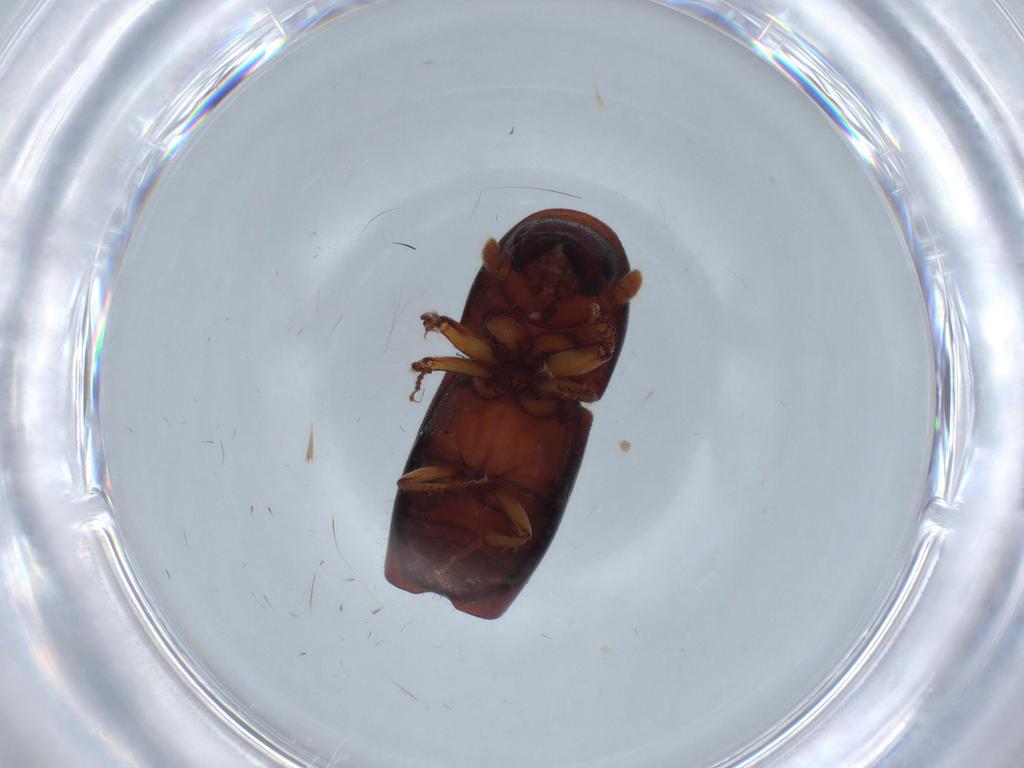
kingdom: Animalia
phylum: Arthropoda
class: Insecta
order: Coleoptera
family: Curculionidae
